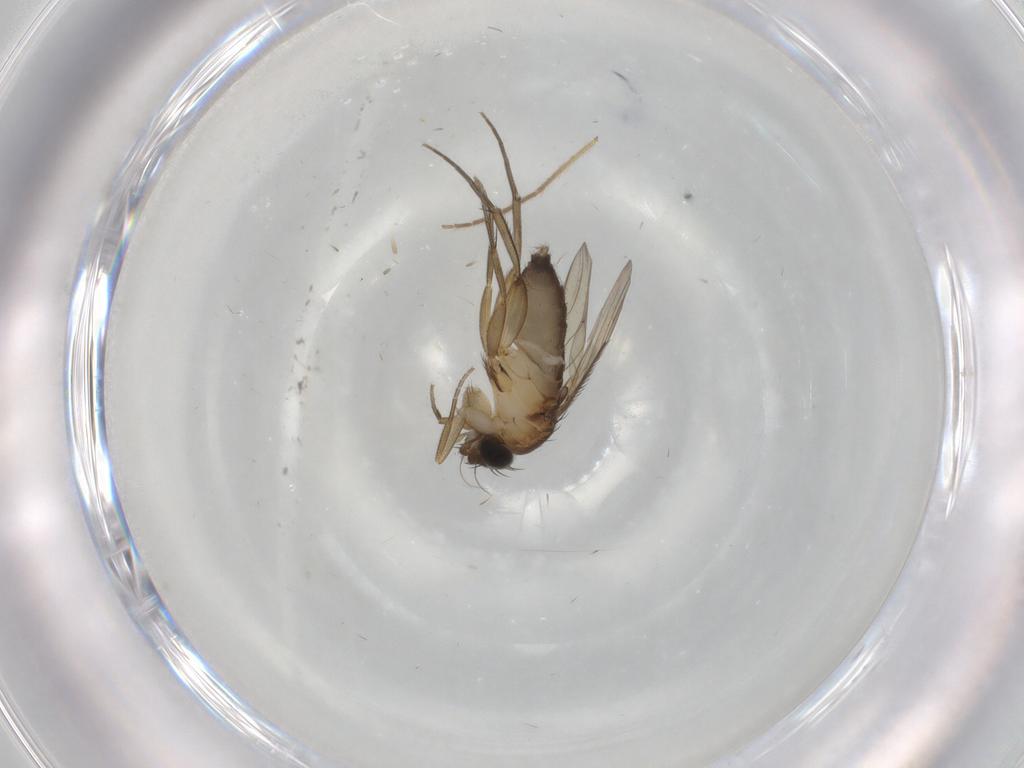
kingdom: Animalia
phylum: Arthropoda
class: Insecta
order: Diptera
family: Phoridae
